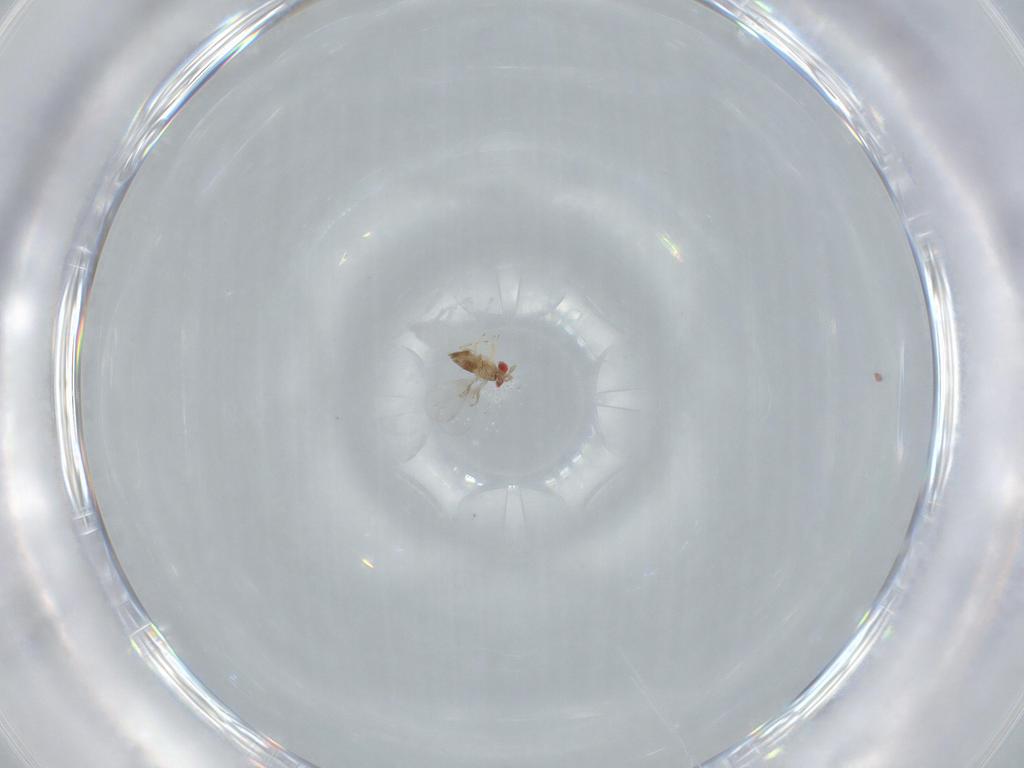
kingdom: Animalia
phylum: Arthropoda
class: Insecta
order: Hymenoptera
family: Trichogrammatidae
